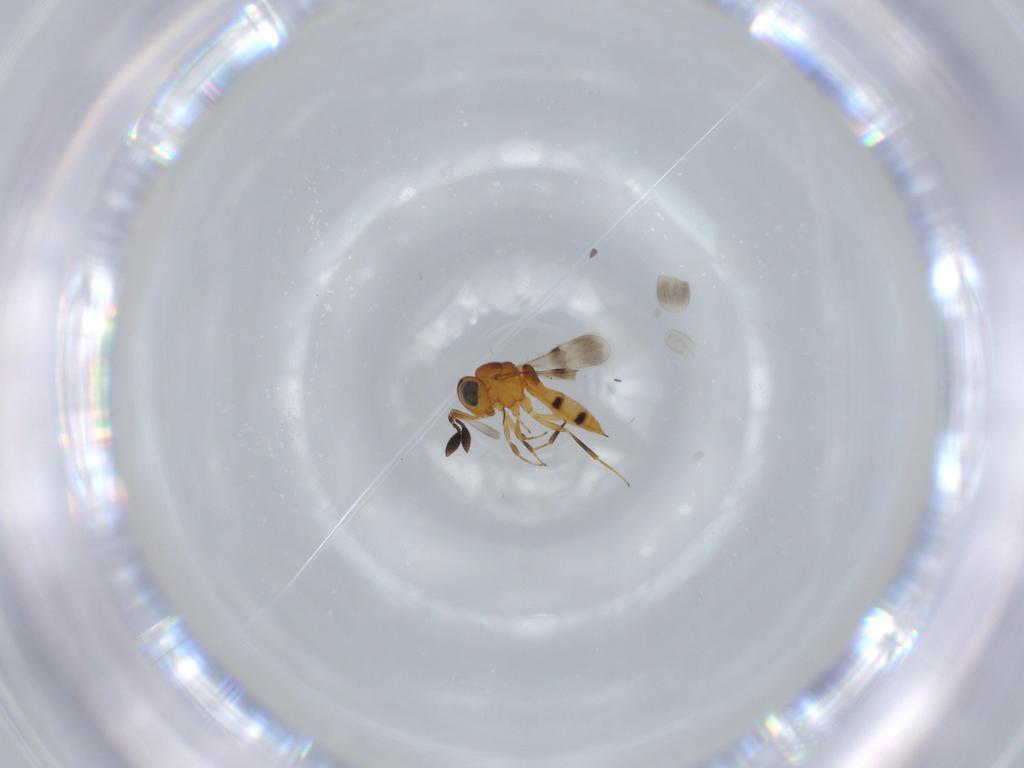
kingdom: Animalia
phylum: Arthropoda
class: Insecta
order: Hymenoptera
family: Scelionidae
